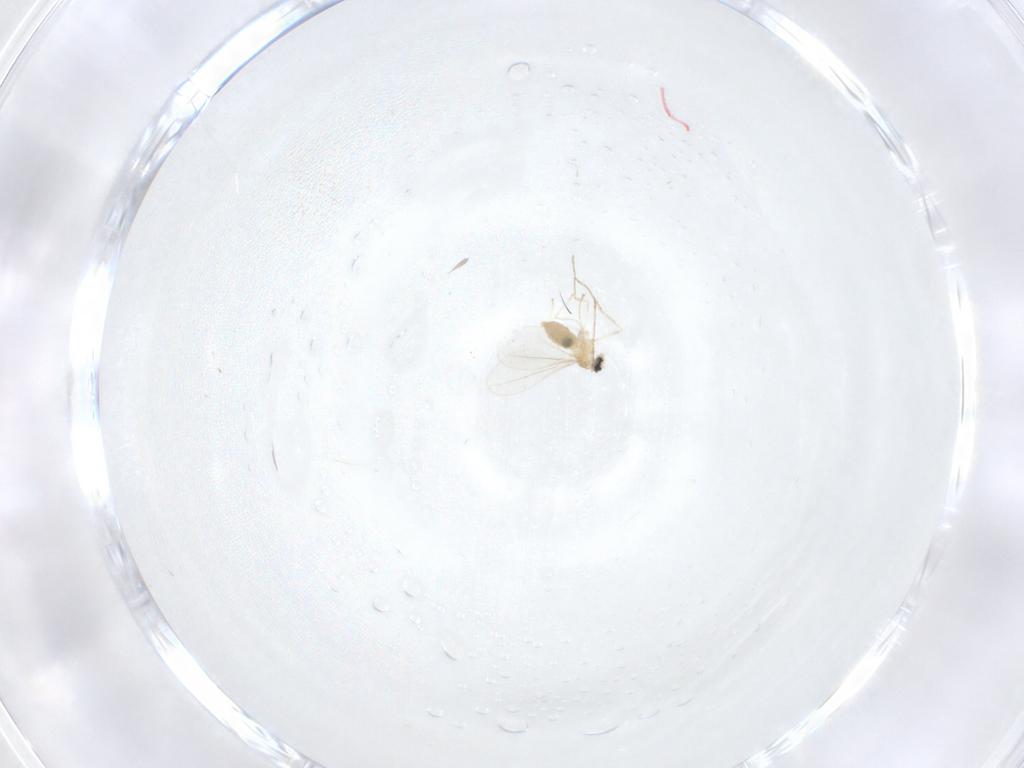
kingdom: Animalia
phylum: Arthropoda
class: Insecta
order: Diptera
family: Cecidomyiidae
